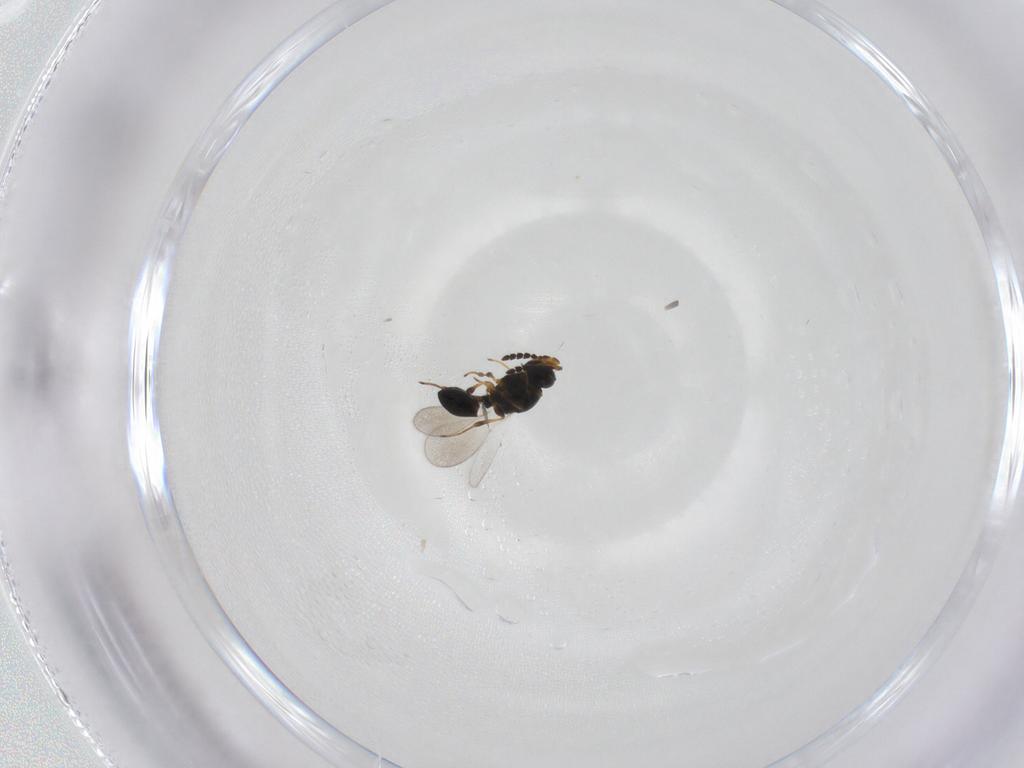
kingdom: Animalia
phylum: Arthropoda
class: Insecta
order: Hymenoptera
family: Platygastridae
